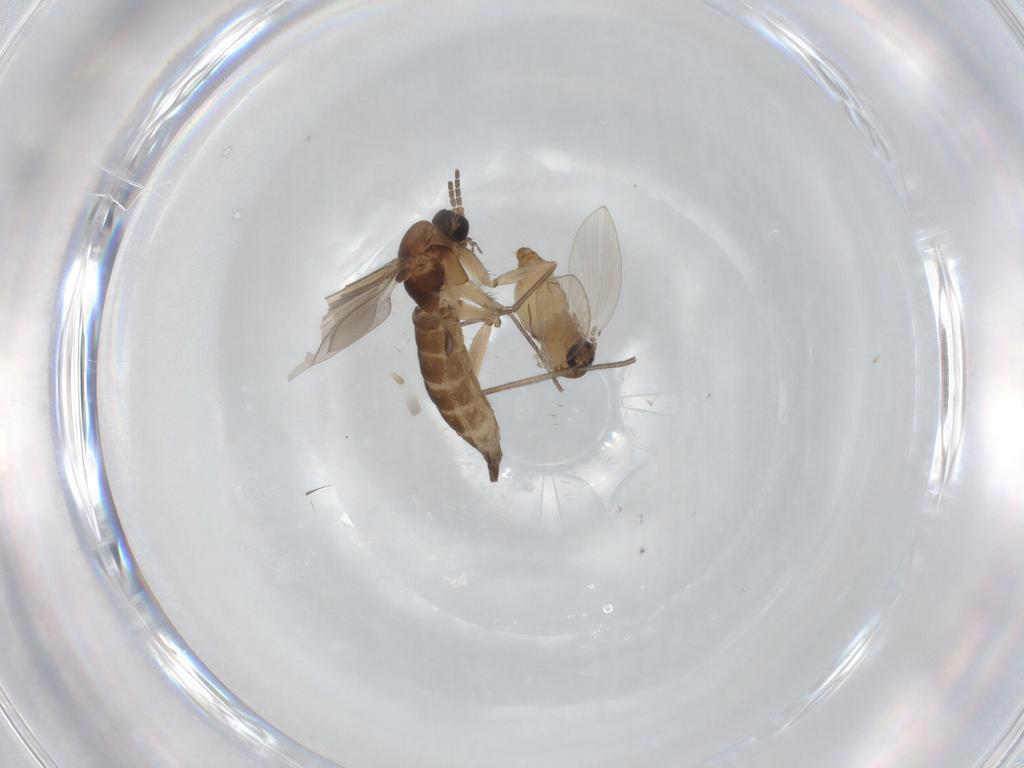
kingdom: Animalia
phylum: Arthropoda
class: Insecta
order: Diptera
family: Psychodidae
